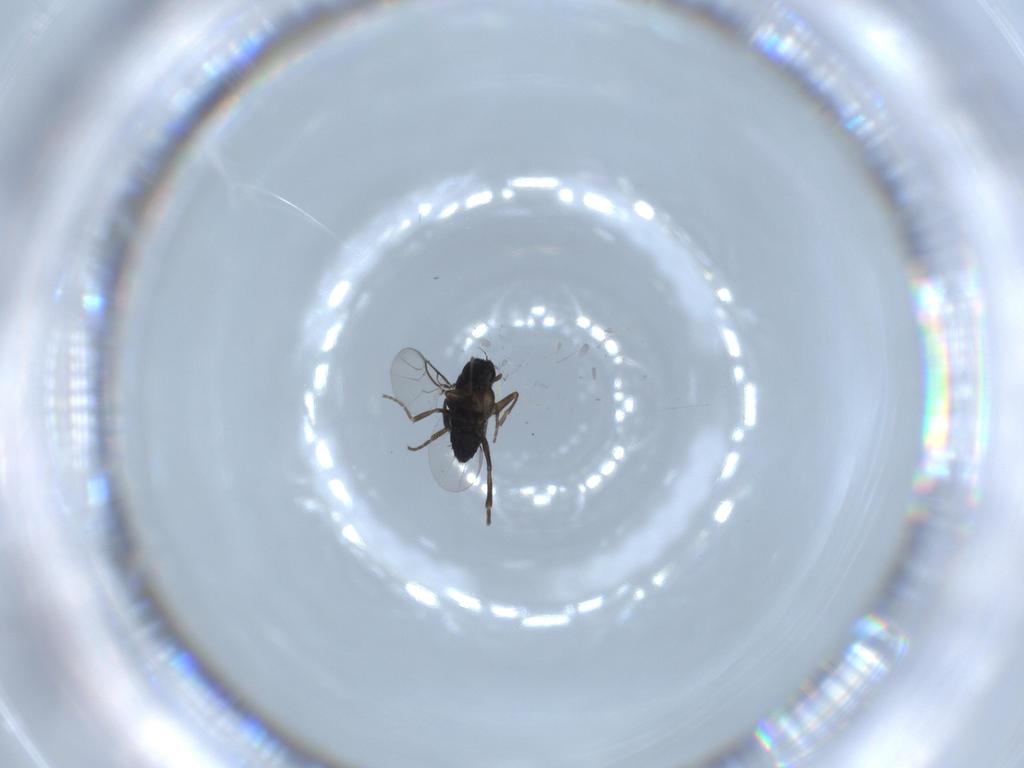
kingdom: Animalia
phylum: Arthropoda
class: Insecta
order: Diptera
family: Phoridae
